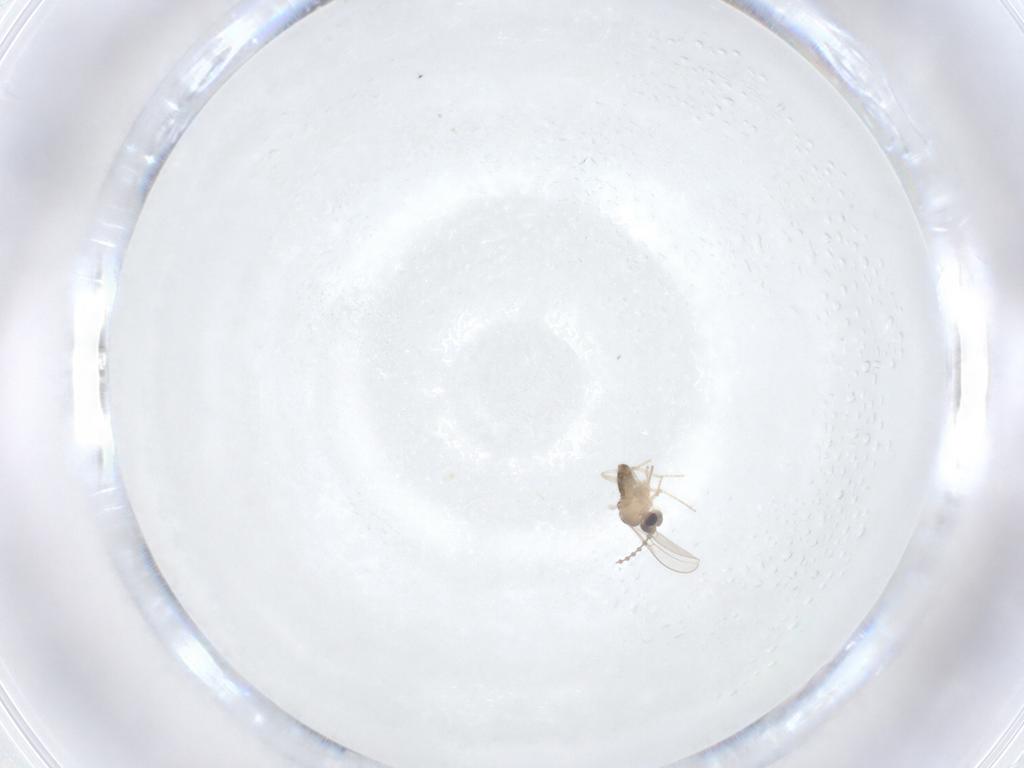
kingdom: Animalia
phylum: Arthropoda
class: Insecta
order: Diptera
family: Cecidomyiidae
